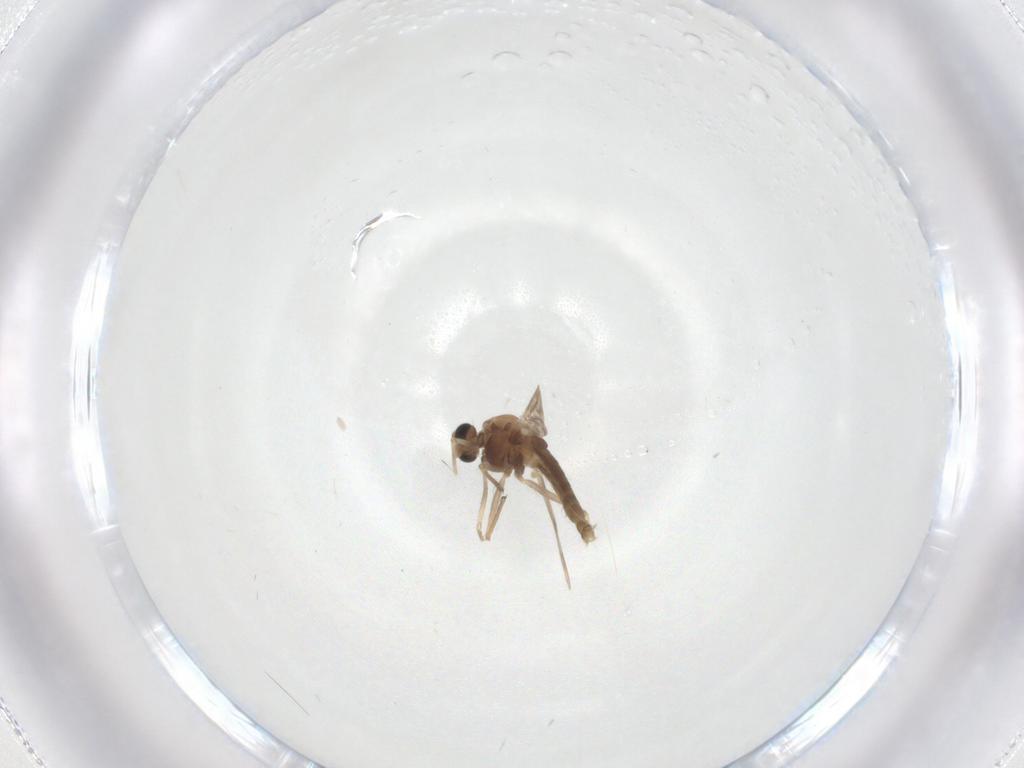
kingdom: Animalia
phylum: Arthropoda
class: Insecta
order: Diptera
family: Chironomidae
